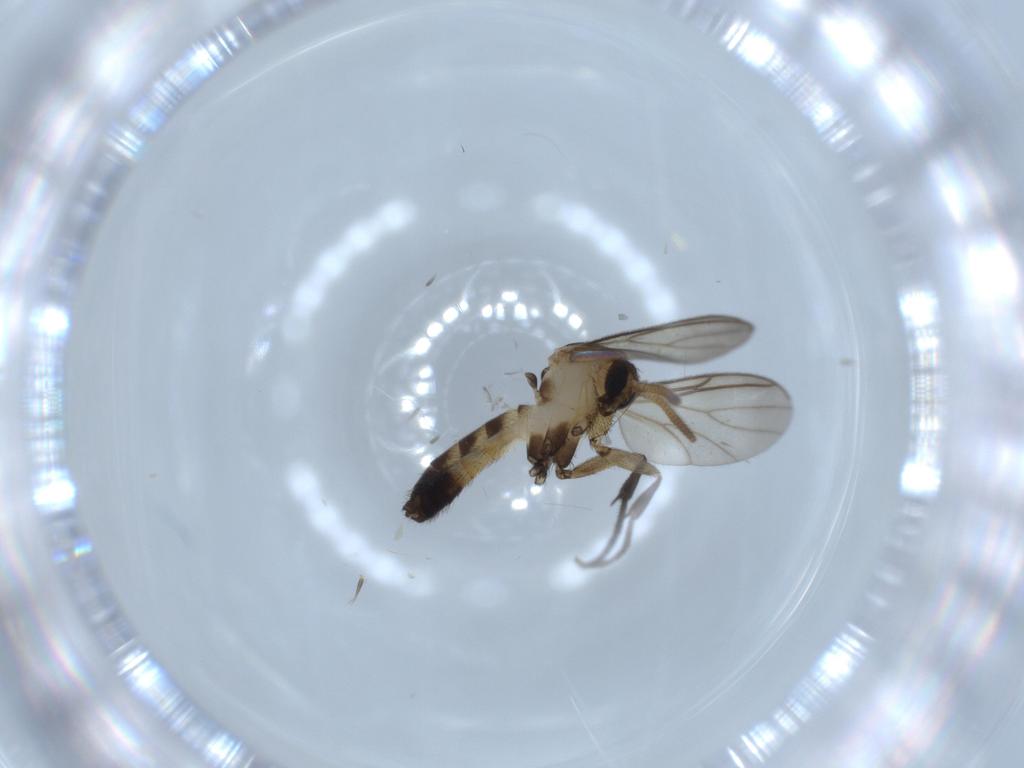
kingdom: Animalia
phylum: Arthropoda
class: Insecta
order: Diptera
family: Mycetophilidae
